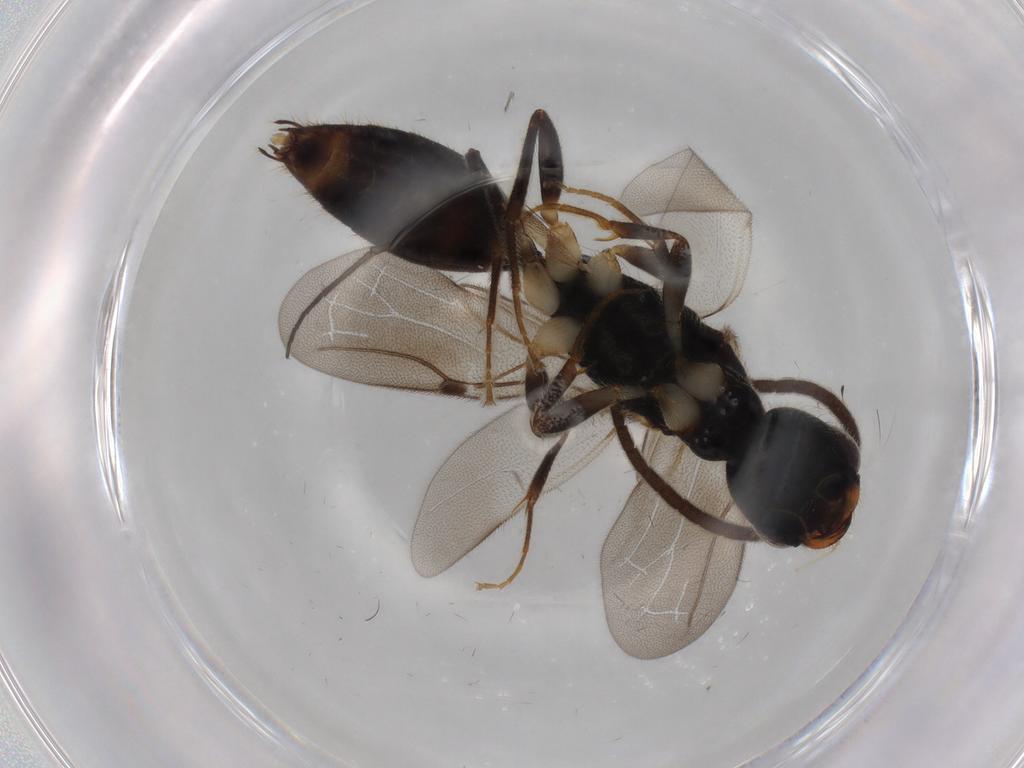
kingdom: Animalia
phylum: Arthropoda
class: Insecta
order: Hymenoptera
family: Bethylidae
